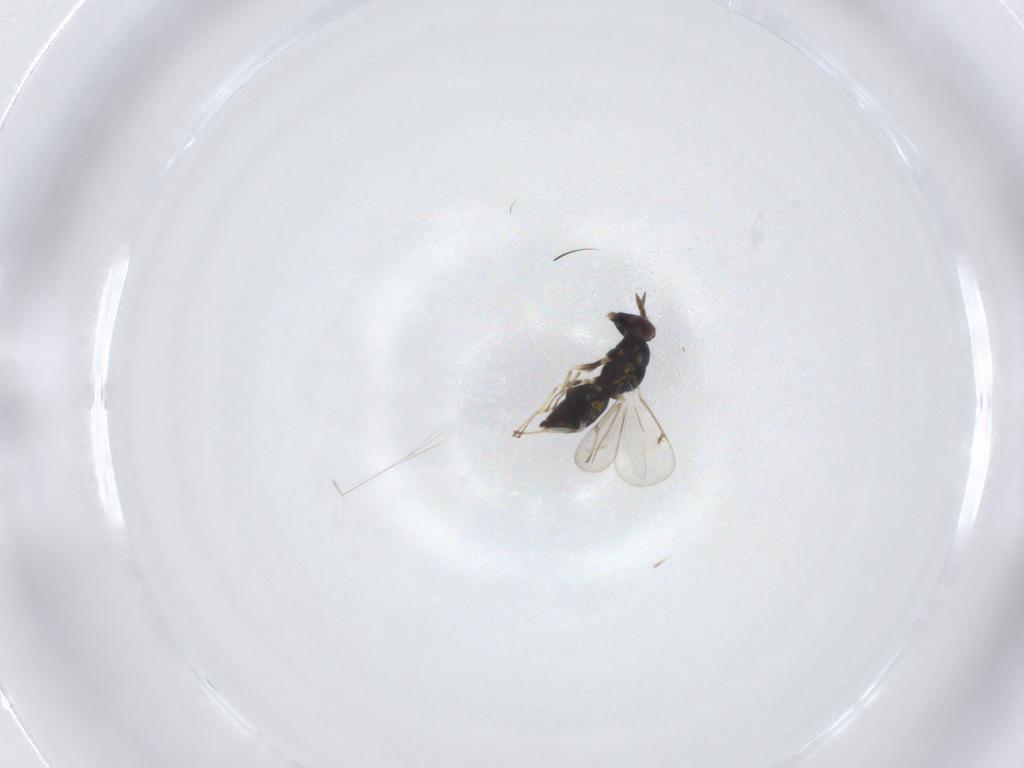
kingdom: Animalia
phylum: Arthropoda
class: Insecta
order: Hymenoptera
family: Eulophidae
